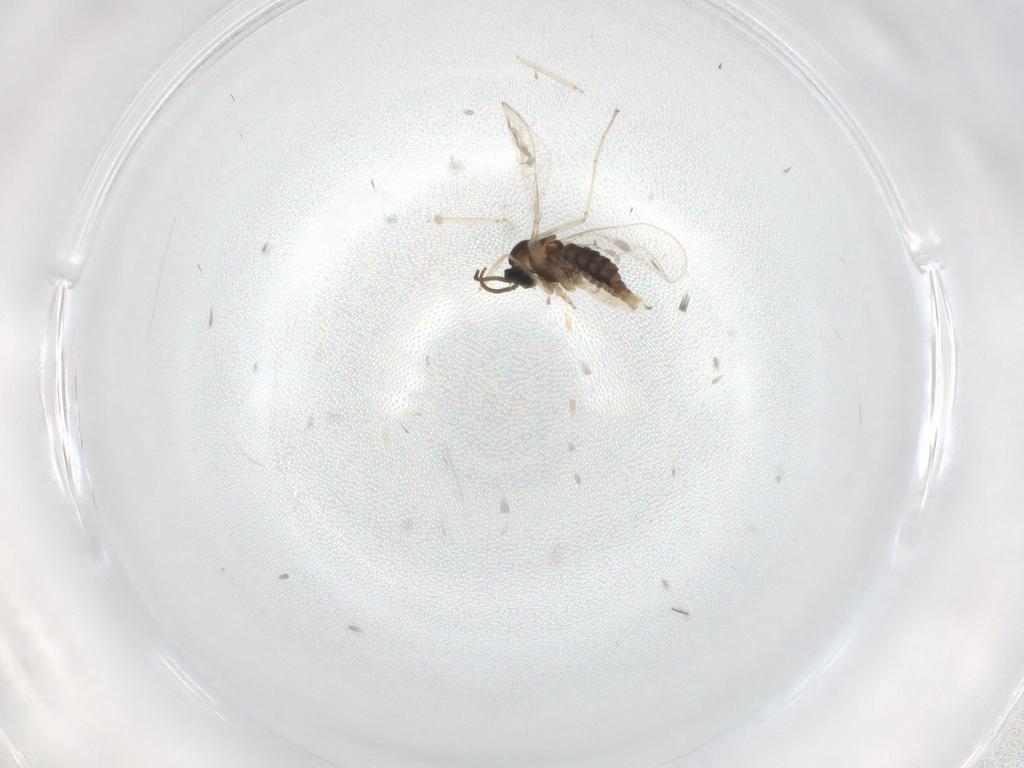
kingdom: Animalia
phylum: Arthropoda
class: Insecta
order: Diptera
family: Cecidomyiidae
